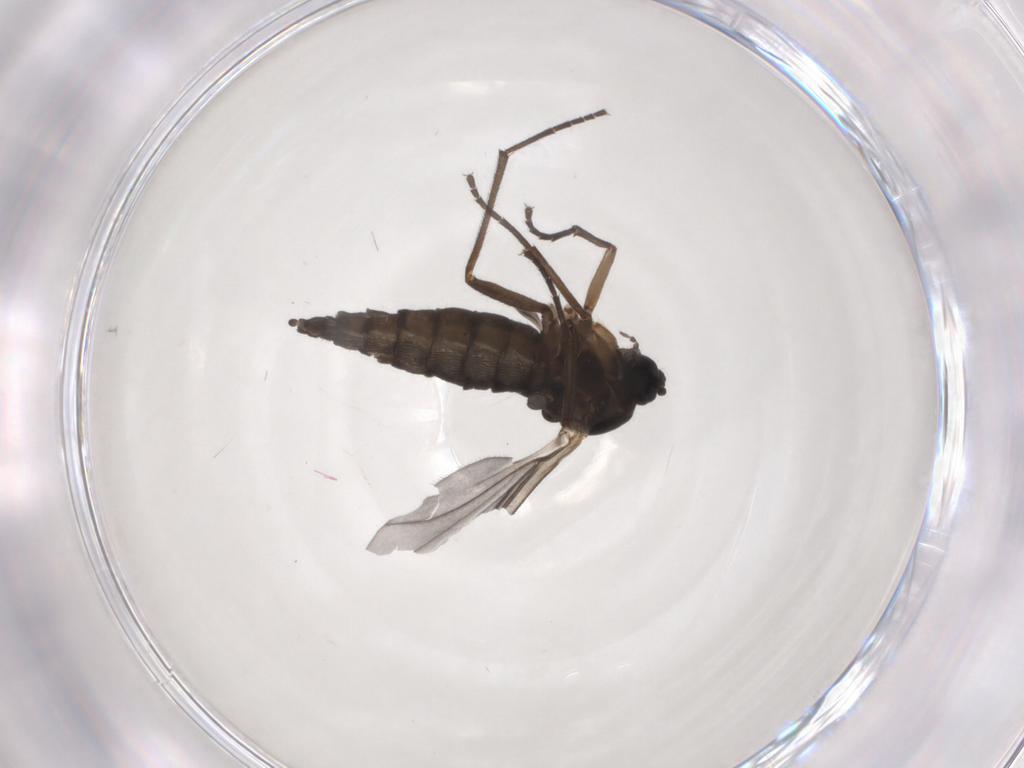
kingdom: Animalia
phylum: Arthropoda
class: Insecta
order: Diptera
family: Sciaridae
